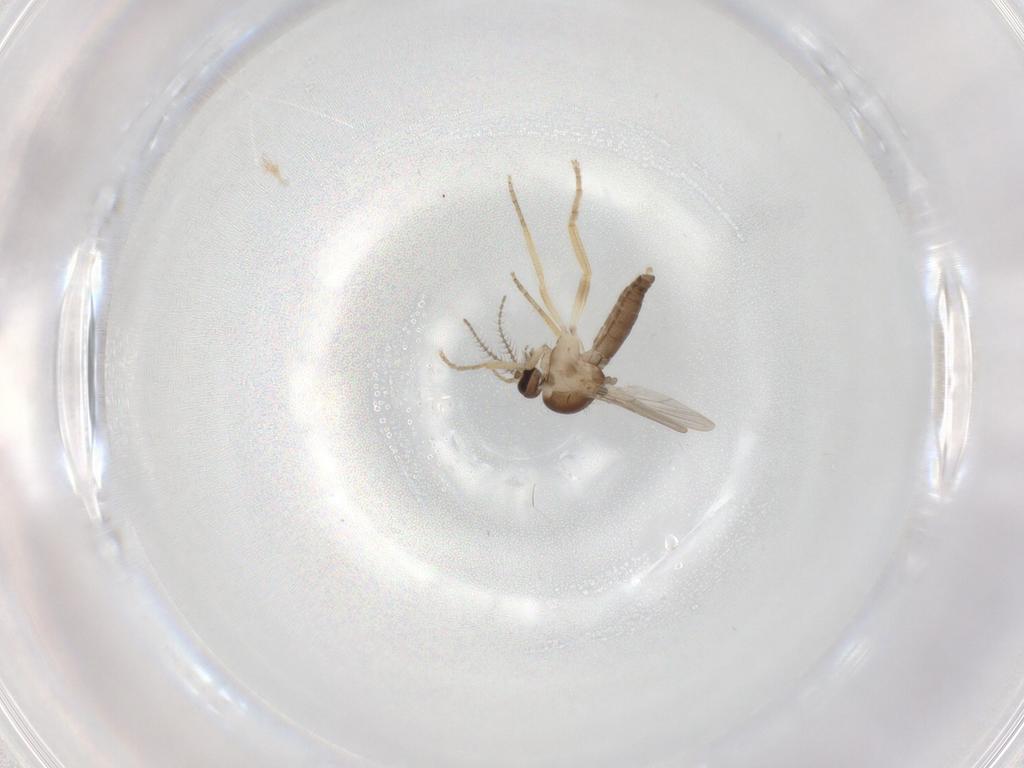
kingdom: Animalia
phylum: Arthropoda
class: Insecta
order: Diptera
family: Ceratopogonidae
